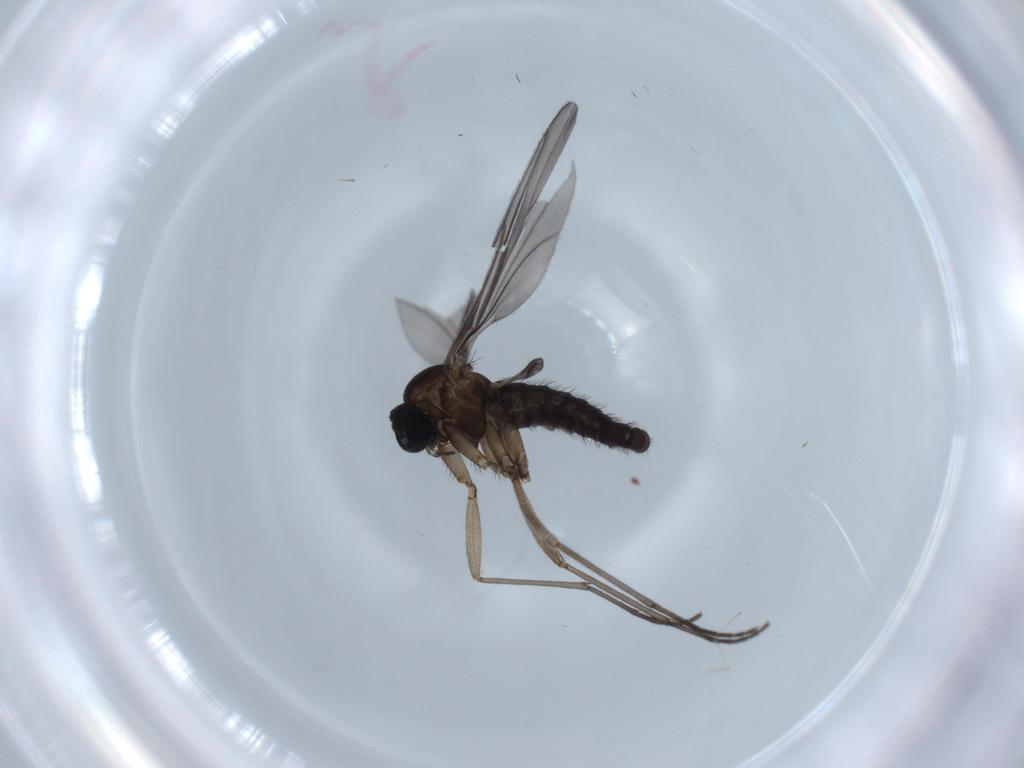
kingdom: Animalia
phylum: Arthropoda
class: Insecta
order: Diptera
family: Sciaridae
